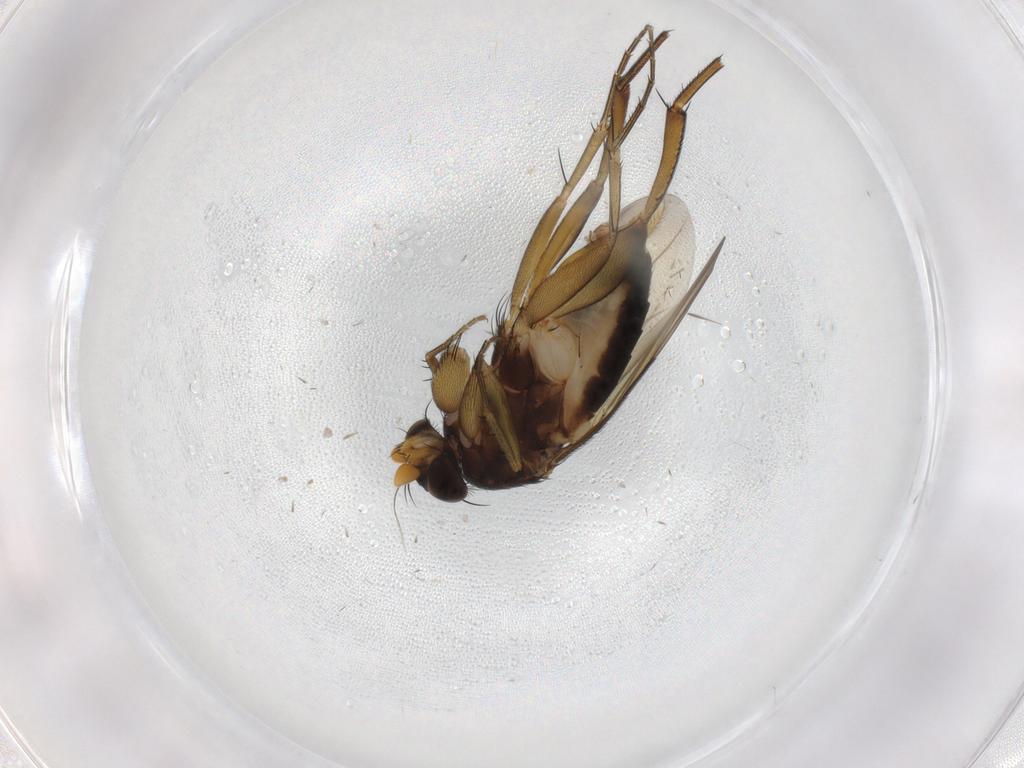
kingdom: Animalia
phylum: Arthropoda
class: Insecta
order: Diptera
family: Phoridae
